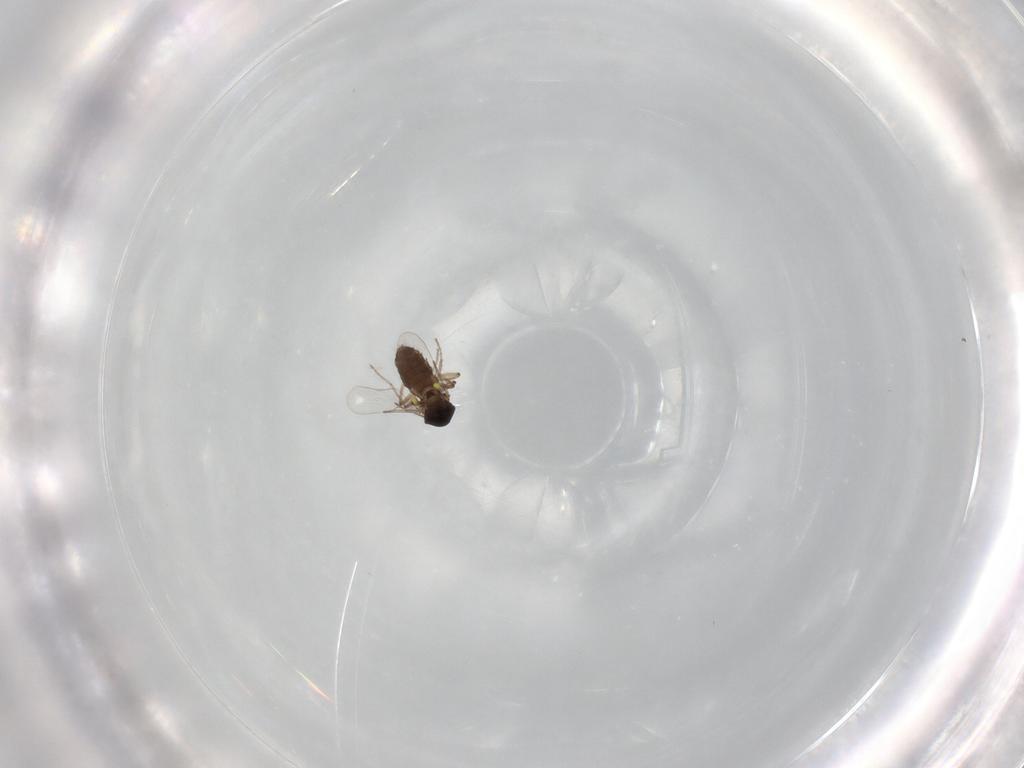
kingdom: Animalia
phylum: Arthropoda
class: Insecta
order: Diptera
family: Ceratopogonidae
